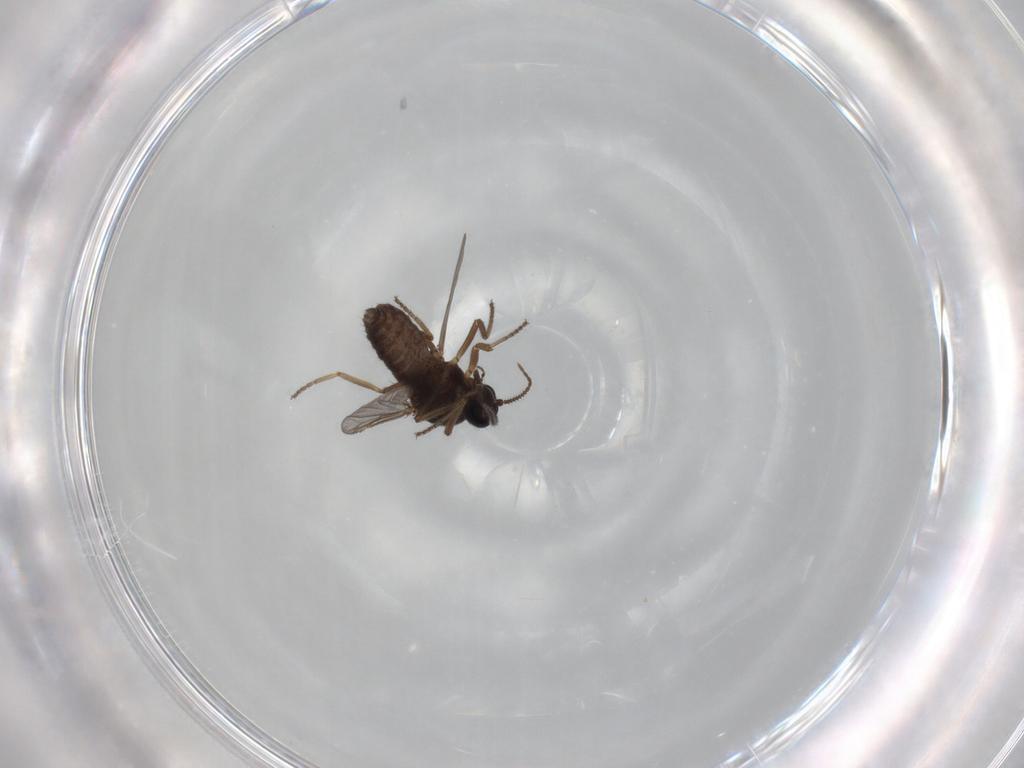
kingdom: Animalia
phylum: Arthropoda
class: Insecta
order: Diptera
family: Ceratopogonidae
